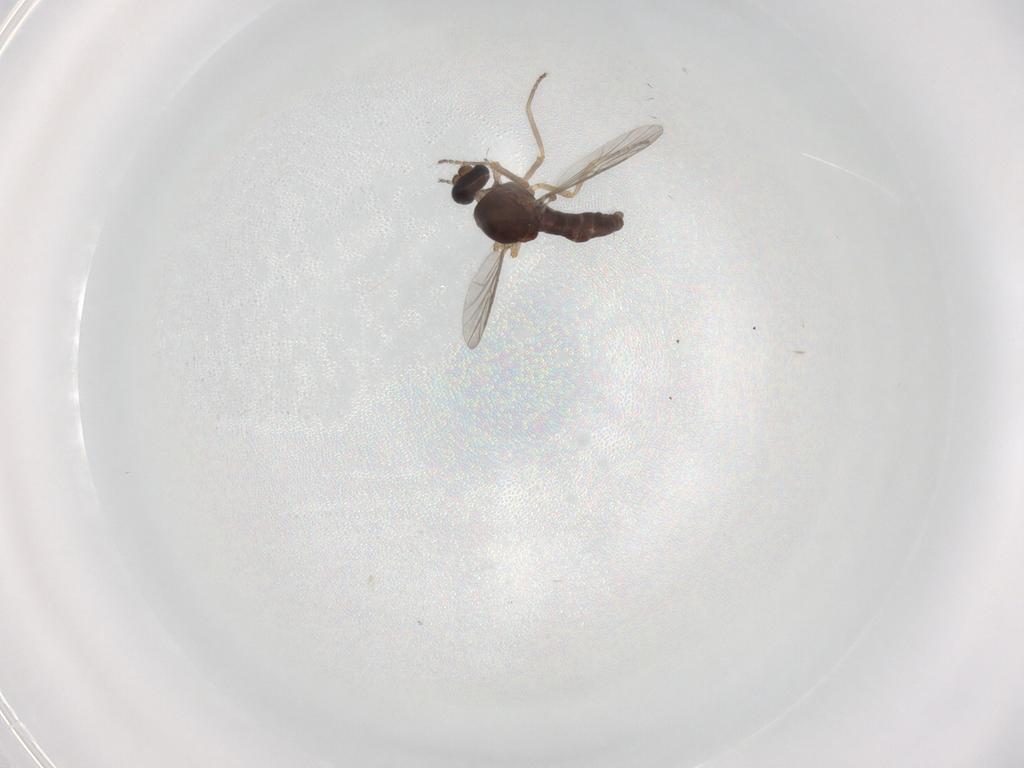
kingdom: Animalia
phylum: Arthropoda
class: Insecta
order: Diptera
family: Ceratopogonidae
